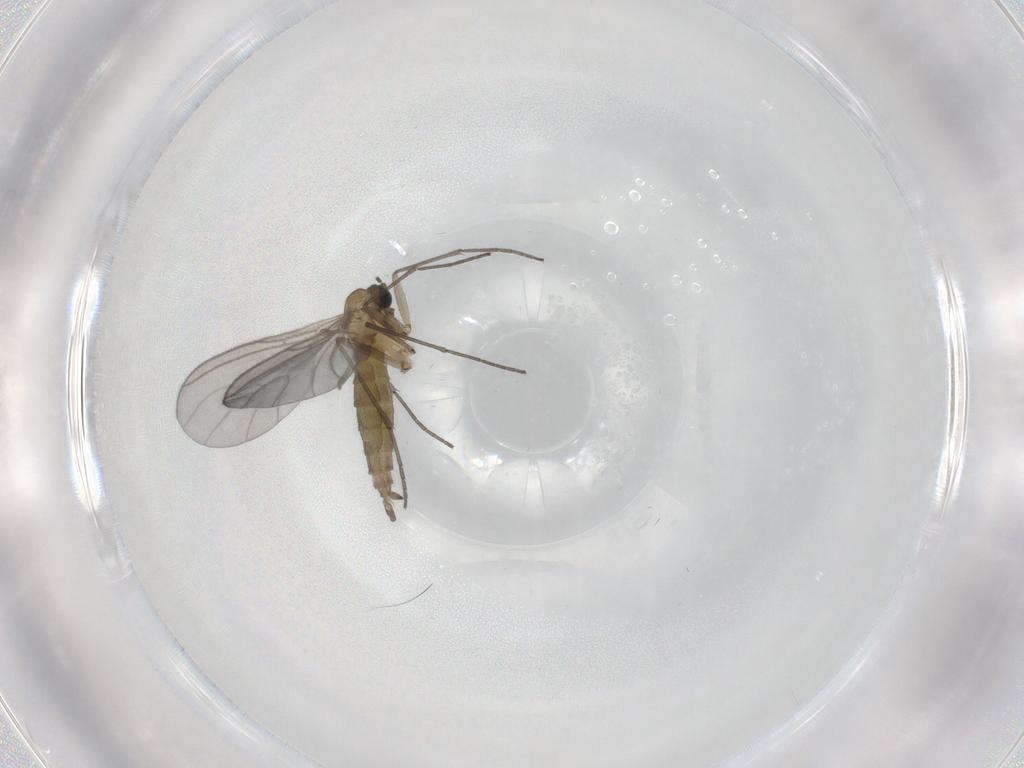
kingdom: Animalia
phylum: Arthropoda
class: Insecta
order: Diptera
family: Sciaridae
